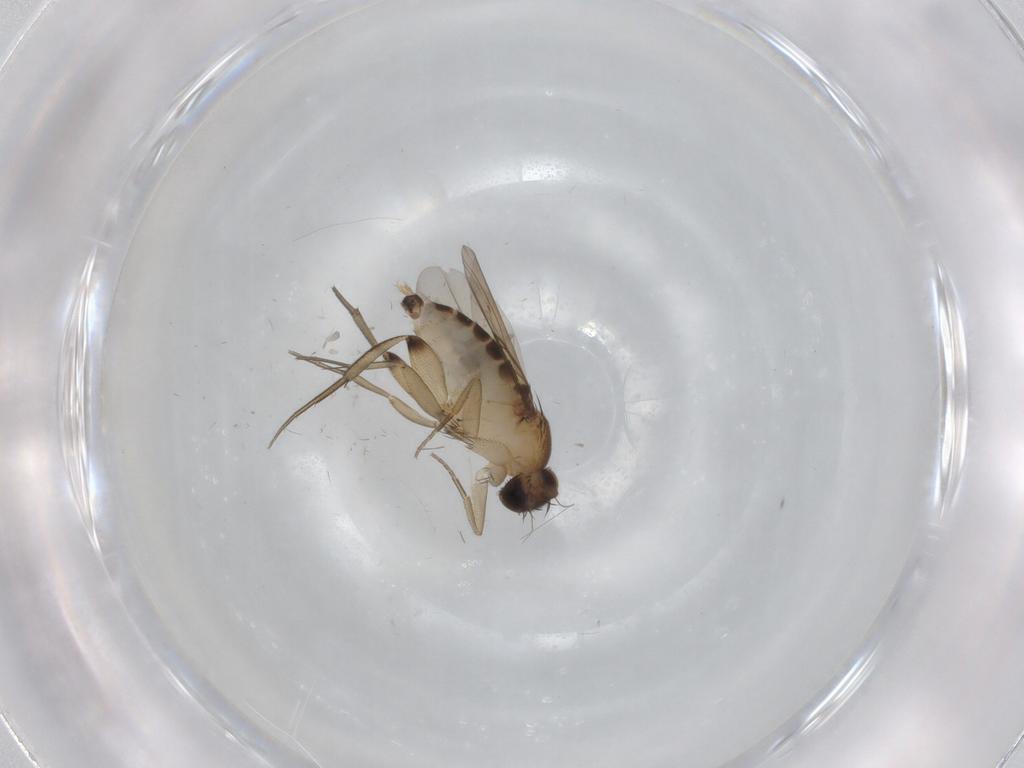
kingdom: Animalia
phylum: Arthropoda
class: Insecta
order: Diptera
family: Phoridae
